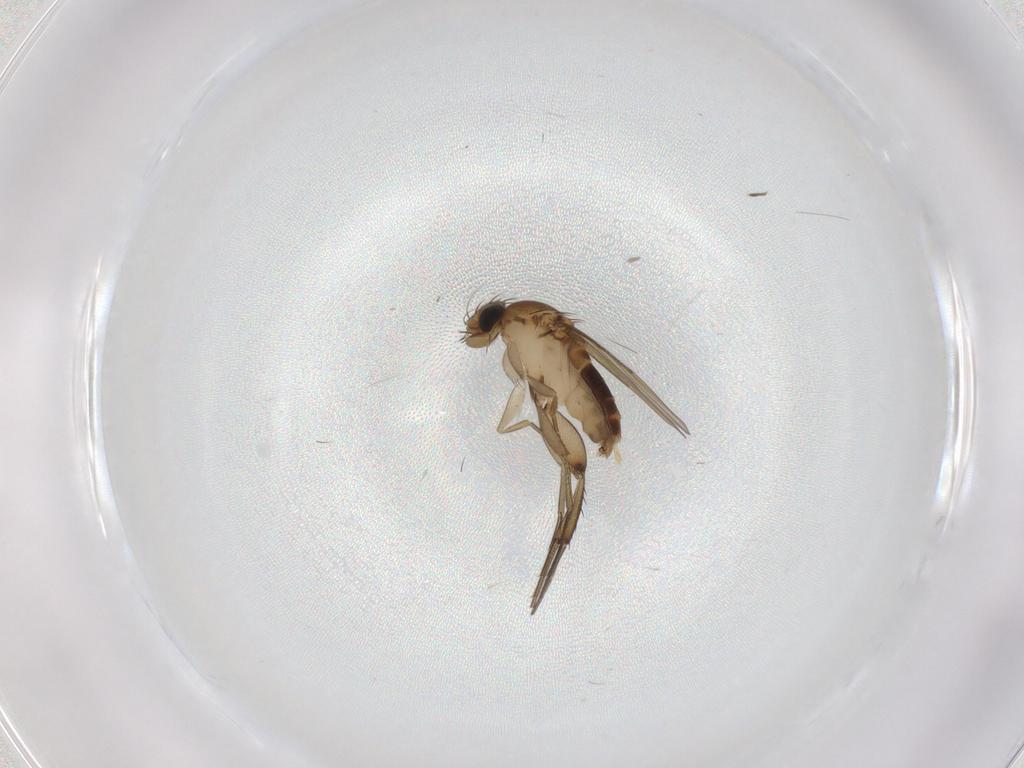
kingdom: Animalia
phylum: Arthropoda
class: Insecta
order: Diptera
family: Phoridae
